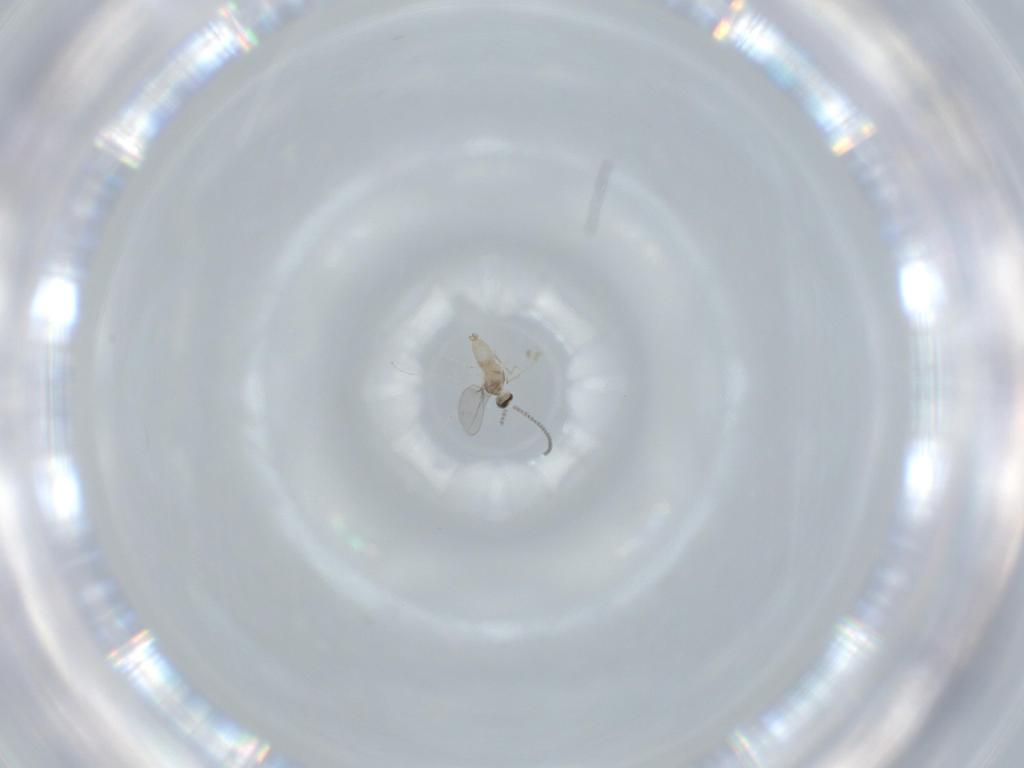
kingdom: Animalia
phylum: Arthropoda
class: Insecta
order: Diptera
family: Cecidomyiidae
